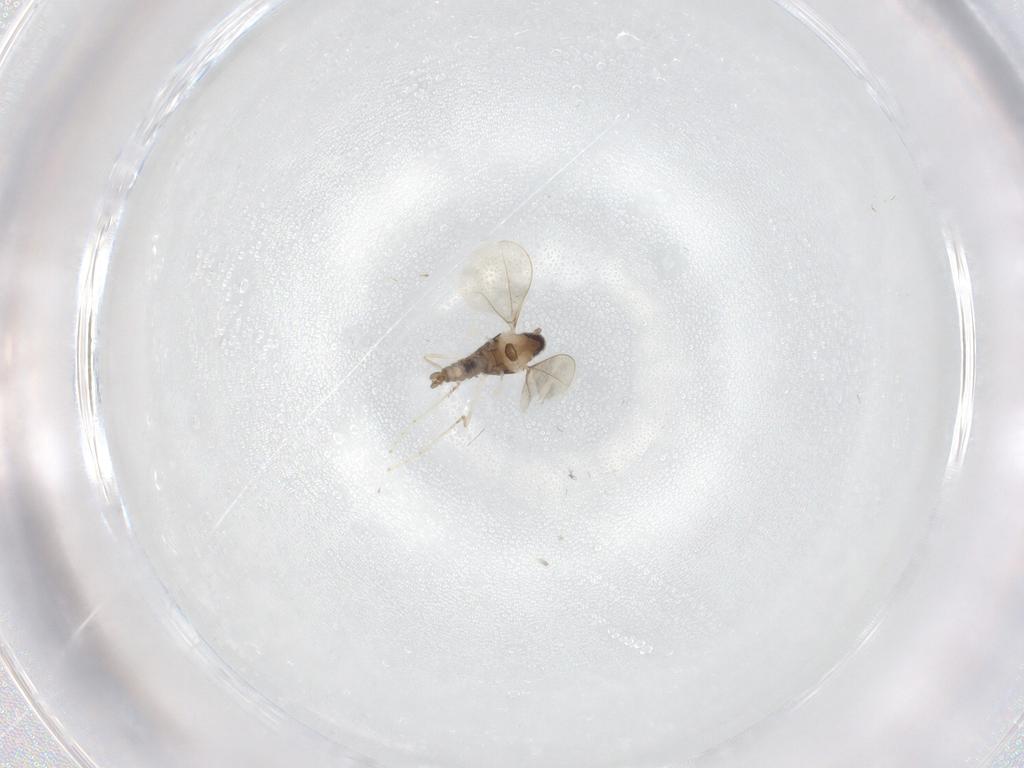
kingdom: Animalia
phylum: Arthropoda
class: Insecta
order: Diptera
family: Cecidomyiidae
